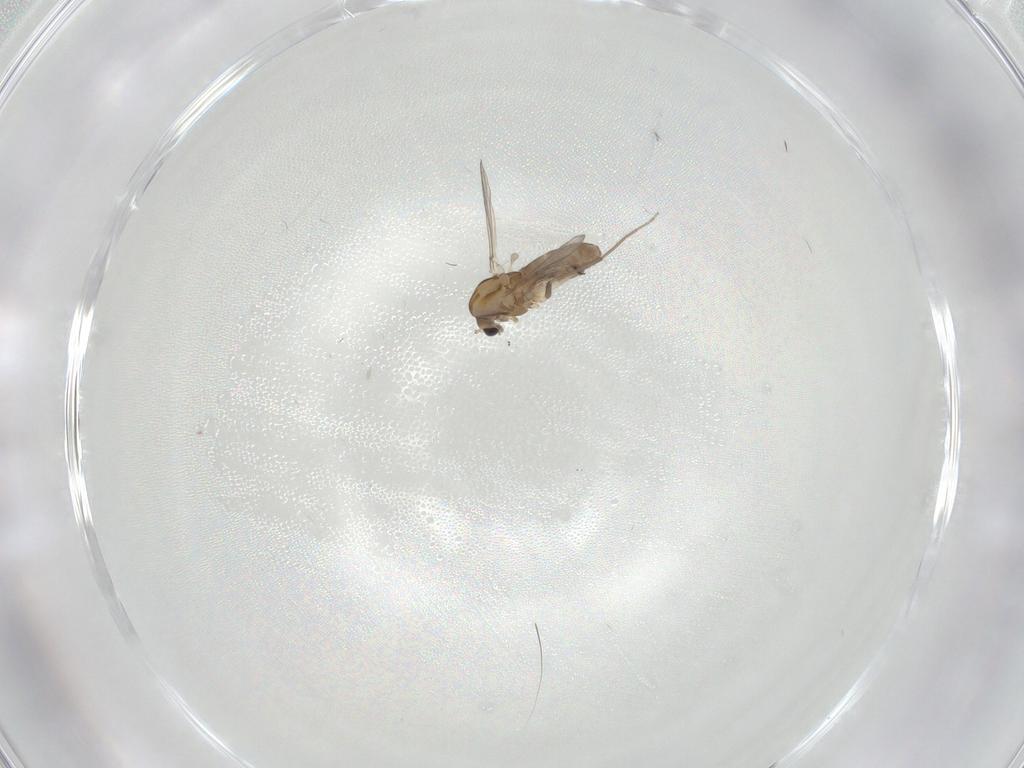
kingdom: Animalia
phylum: Arthropoda
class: Insecta
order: Diptera
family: Chironomidae
